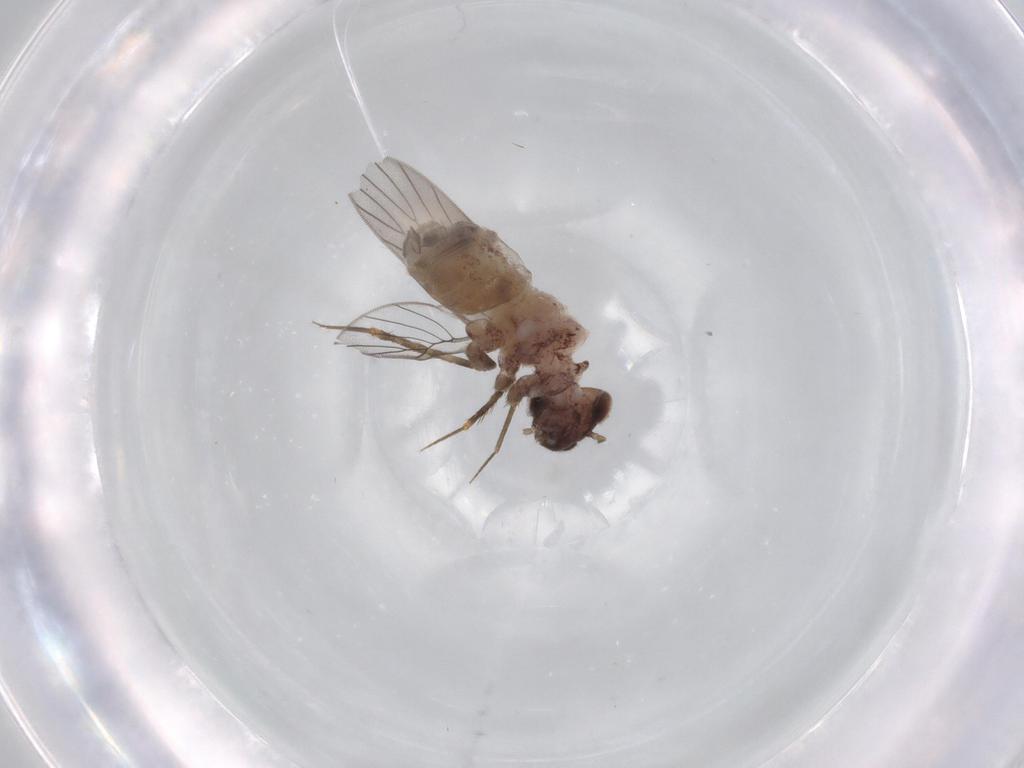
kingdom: Animalia
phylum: Arthropoda
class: Insecta
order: Psocodea
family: Lepidopsocidae
